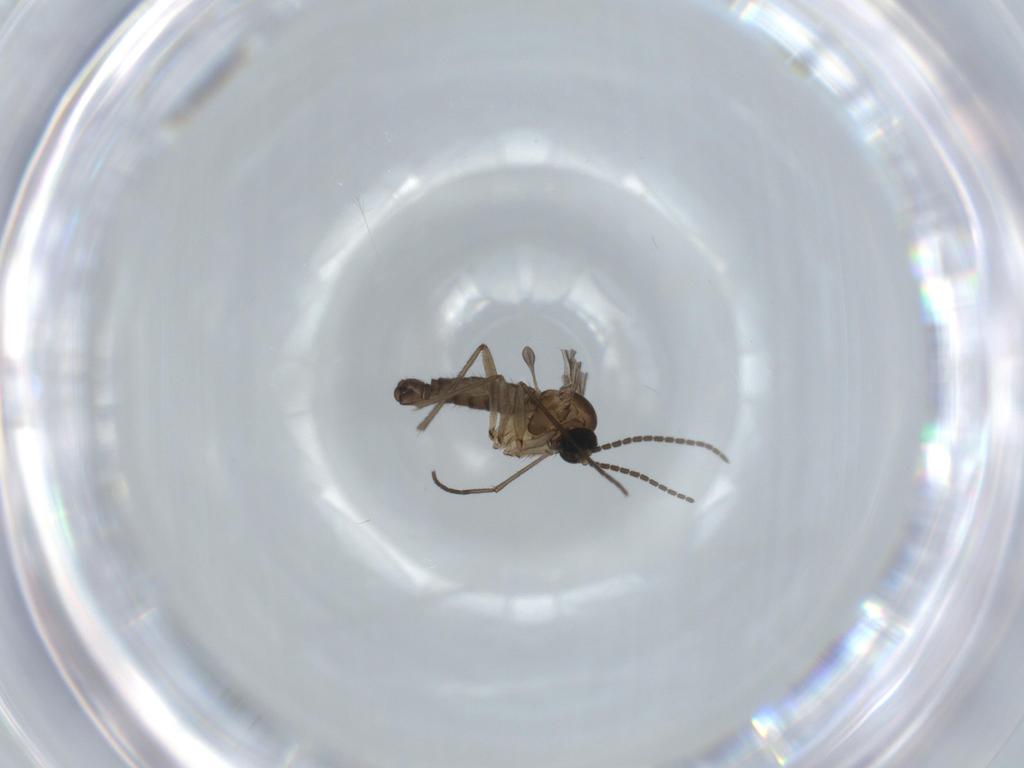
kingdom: Animalia
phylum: Arthropoda
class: Insecta
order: Diptera
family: Sciaridae
